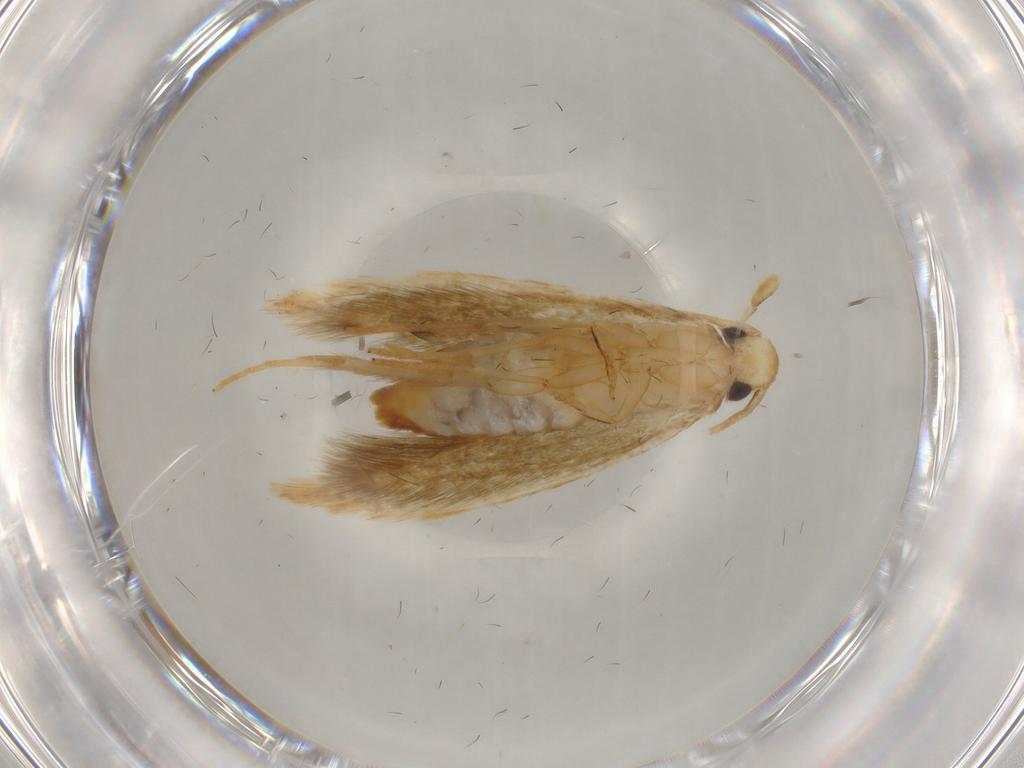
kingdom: Animalia
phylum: Arthropoda
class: Insecta
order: Lepidoptera
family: Tineidae
